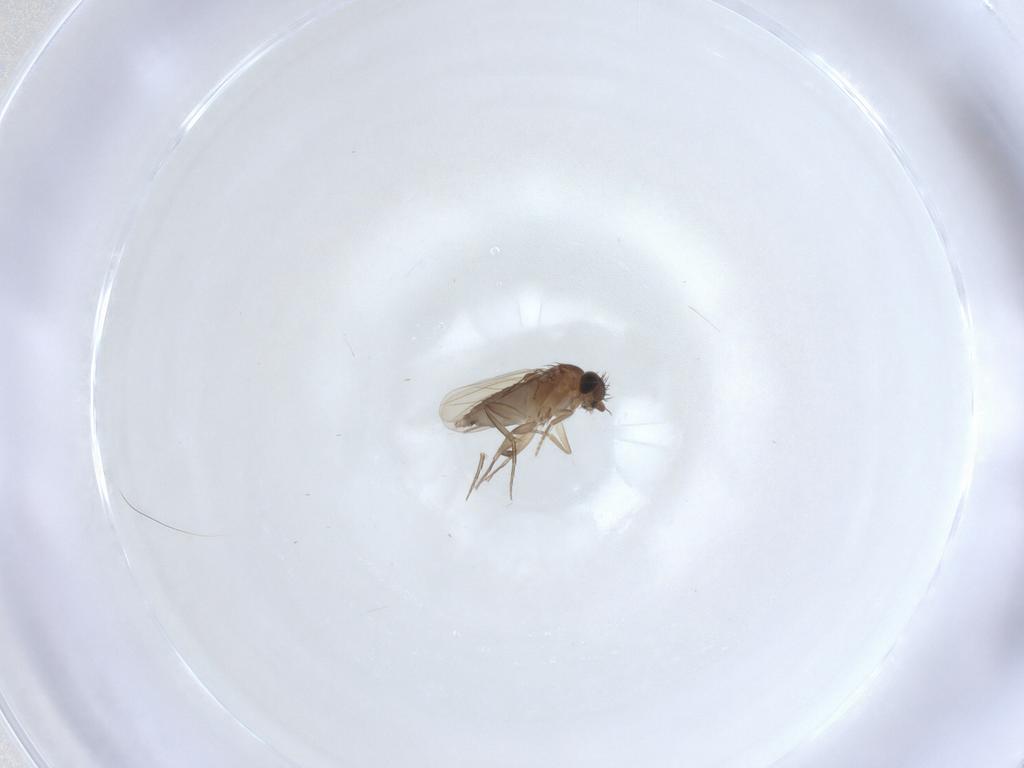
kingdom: Animalia
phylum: Arthropoda
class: Insecta
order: Diptera
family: Phoridae
